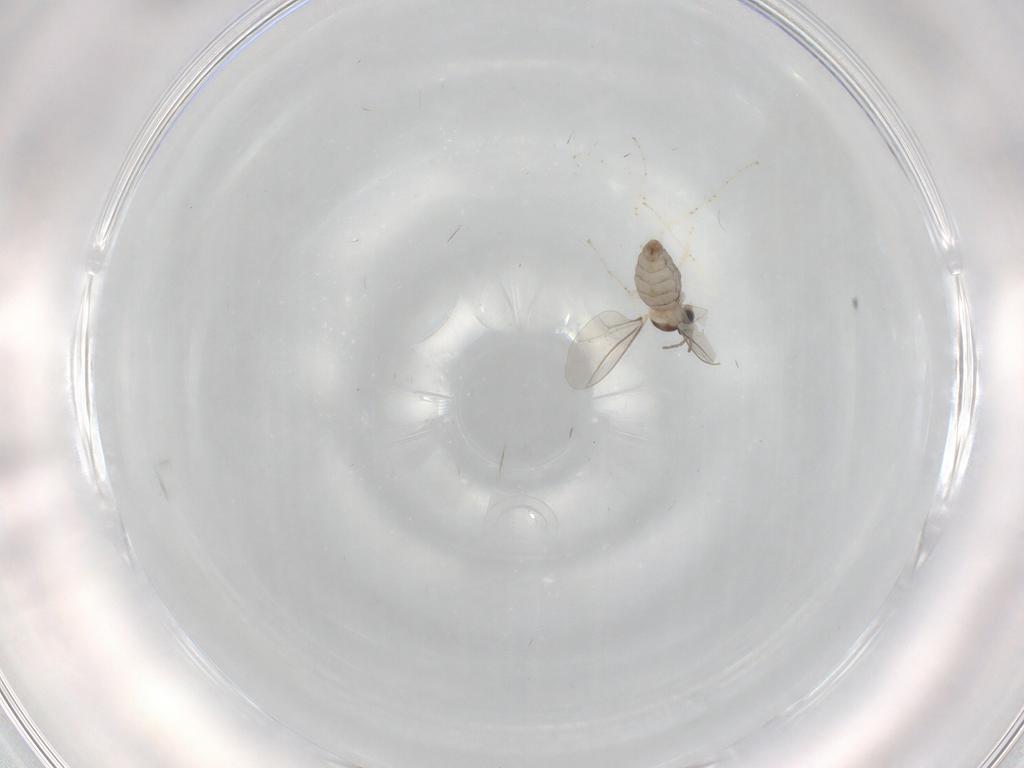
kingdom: Animalia
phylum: Arthropoda
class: Insecta
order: Diptera
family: Cecidomyiidae
